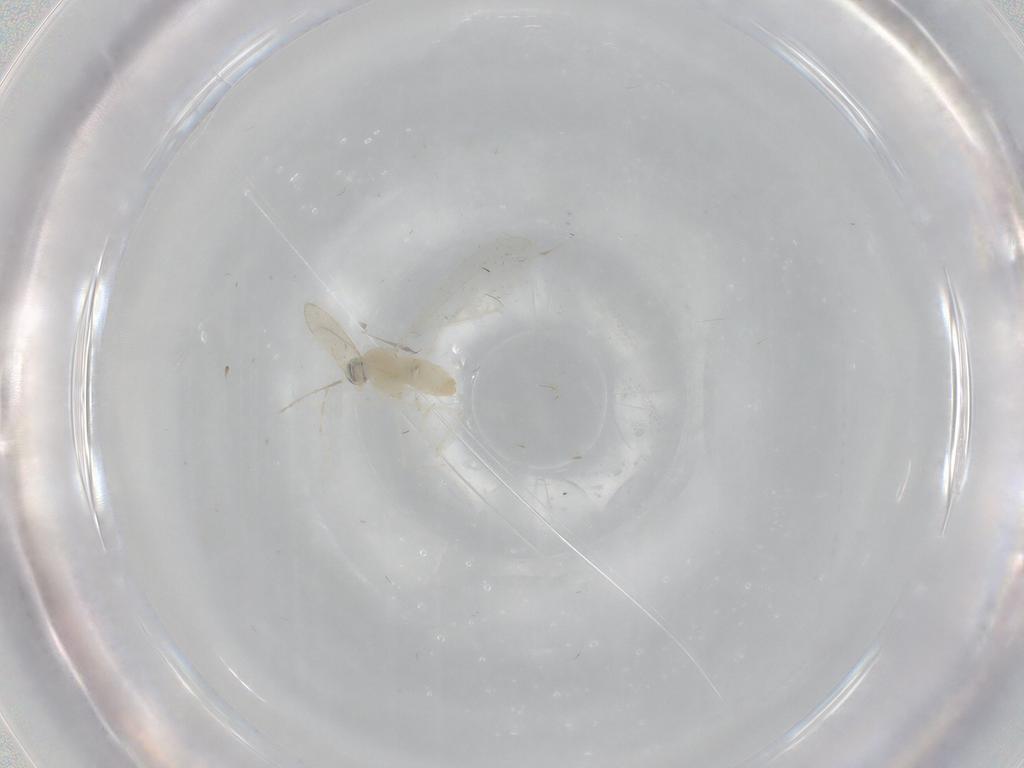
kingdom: Animalia
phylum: Arthropoda
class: Insecta
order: Diptera
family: Cecidomyiidae
